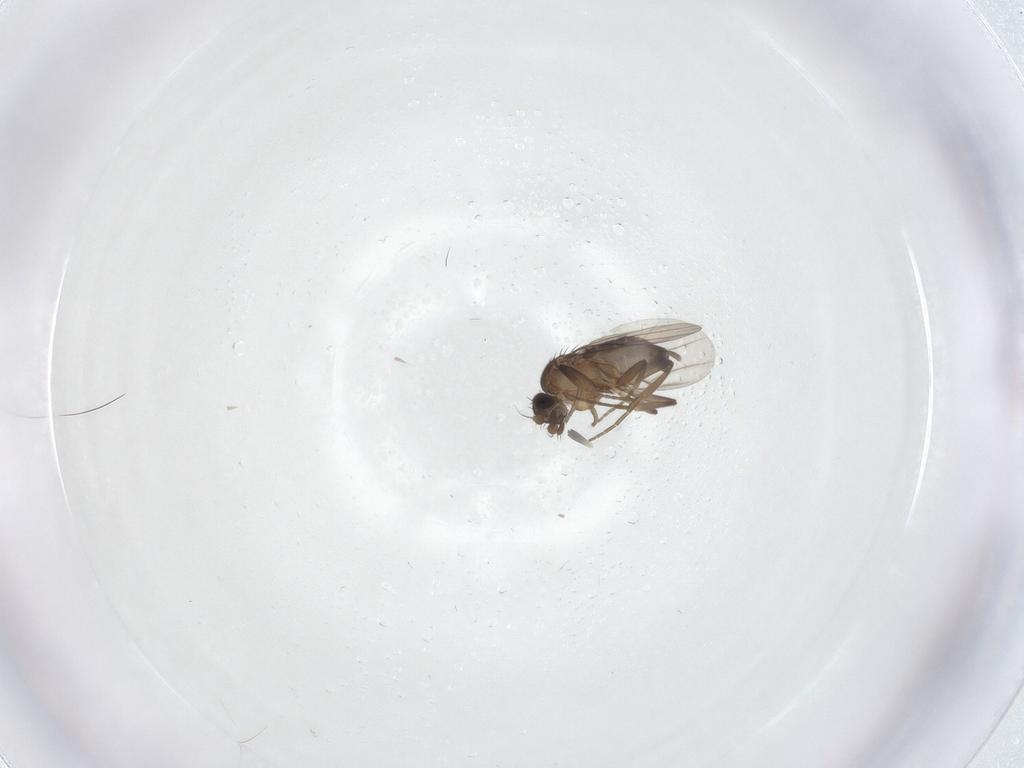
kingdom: Animalia
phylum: Arthropoda
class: Insecta
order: Diptera
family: Phoridae
